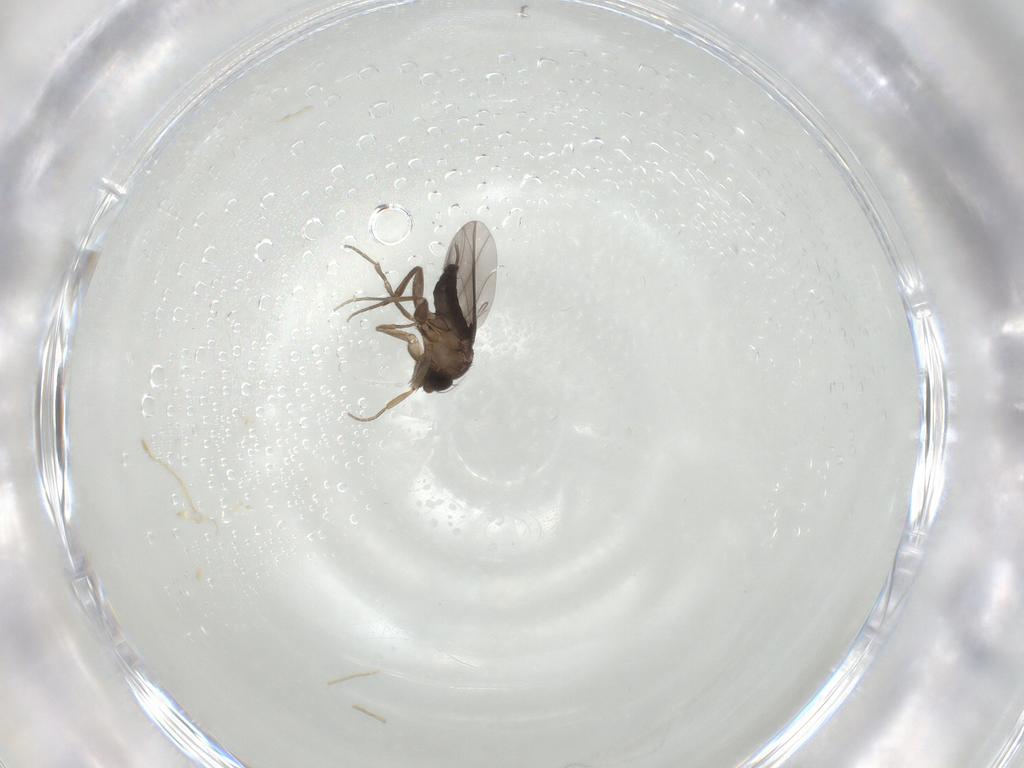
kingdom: Animalia
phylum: Arthropoda
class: Insecta
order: Diptera
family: Phoridae
